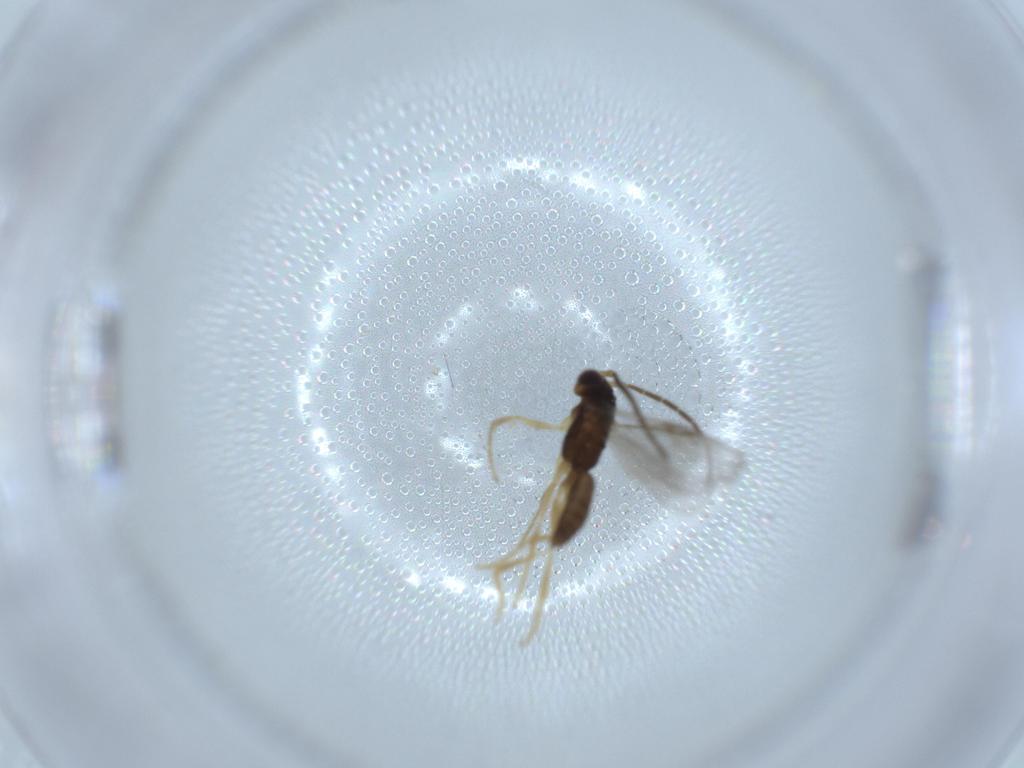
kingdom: Animalia
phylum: Arthropoda
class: Insecta
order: Hymenoptera
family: Dryinidae
